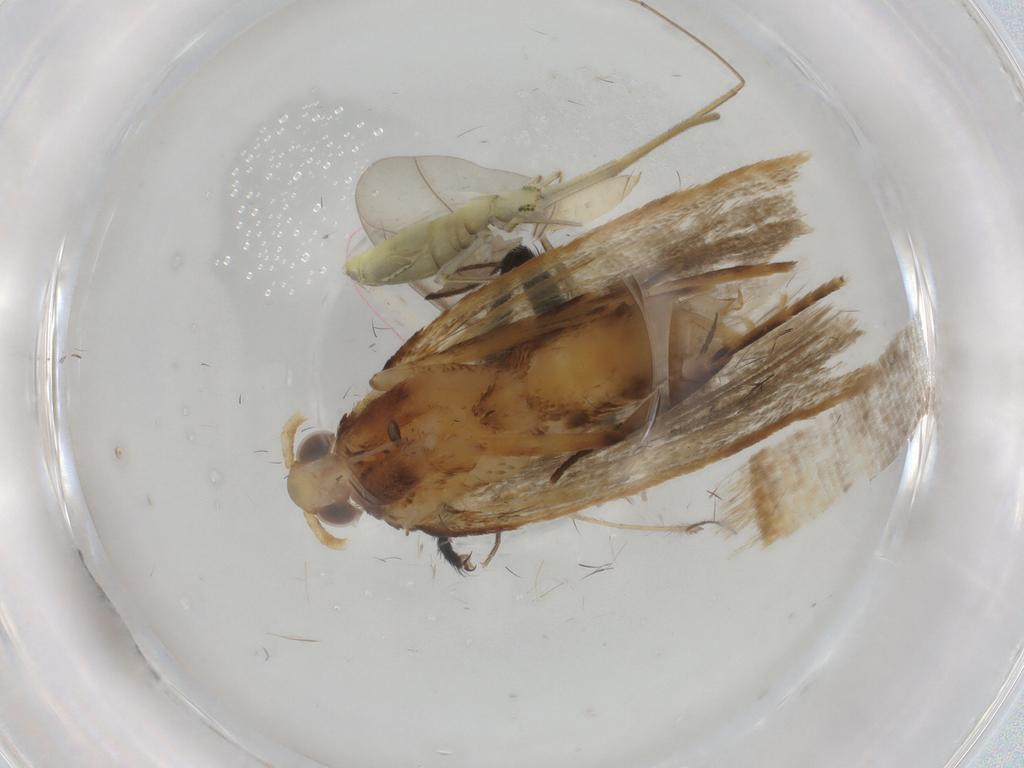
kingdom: Animalia
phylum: Arthropoda
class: Insecta
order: Lepidoptera
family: Lecithoceridae
